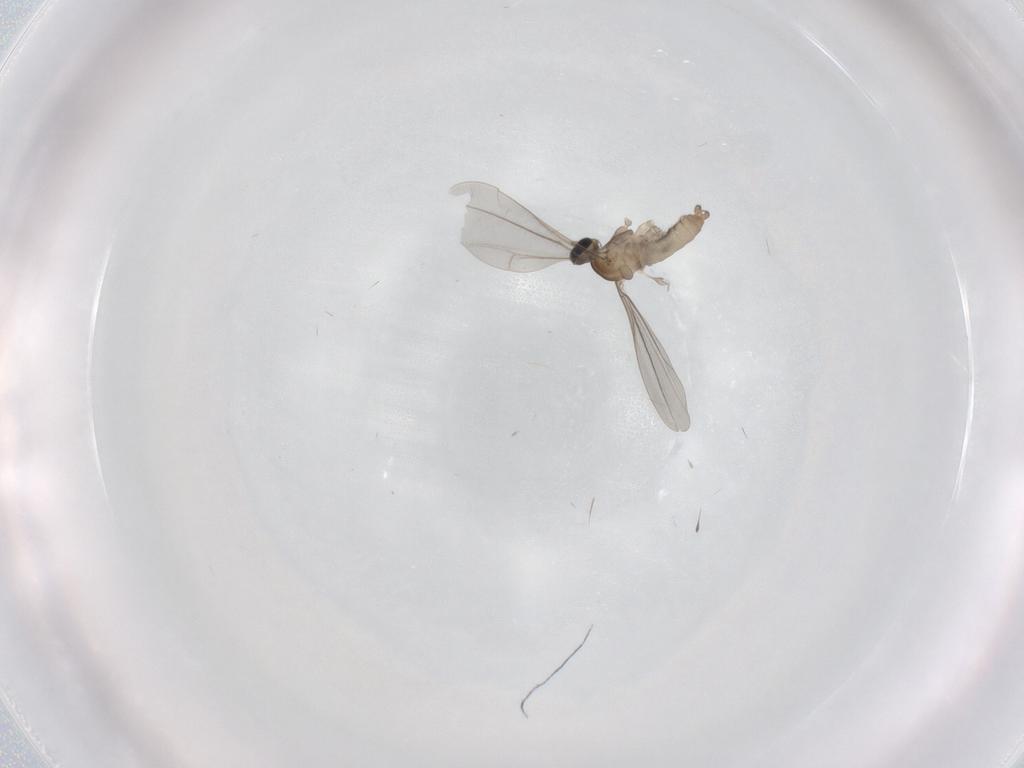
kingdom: Animalia
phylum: Arthropoda
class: Insecta
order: Diptera
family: Cecidomyiidae
